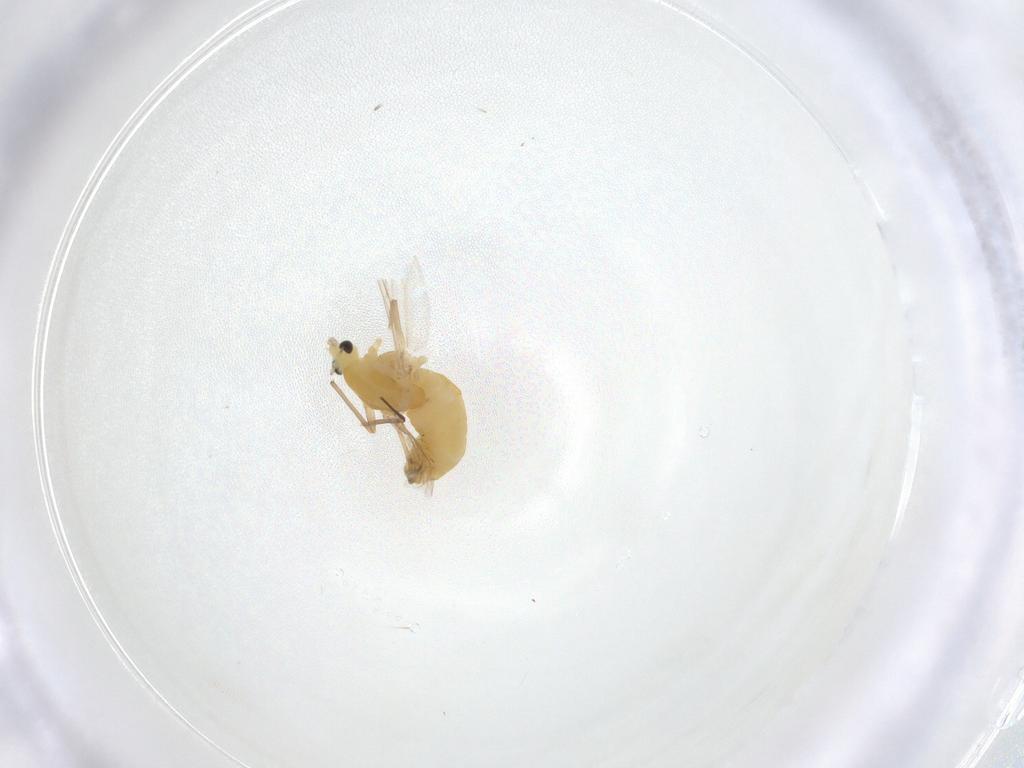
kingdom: Animalia
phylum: Arthropoda
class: Insecta
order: Diptera
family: Chironomidae
